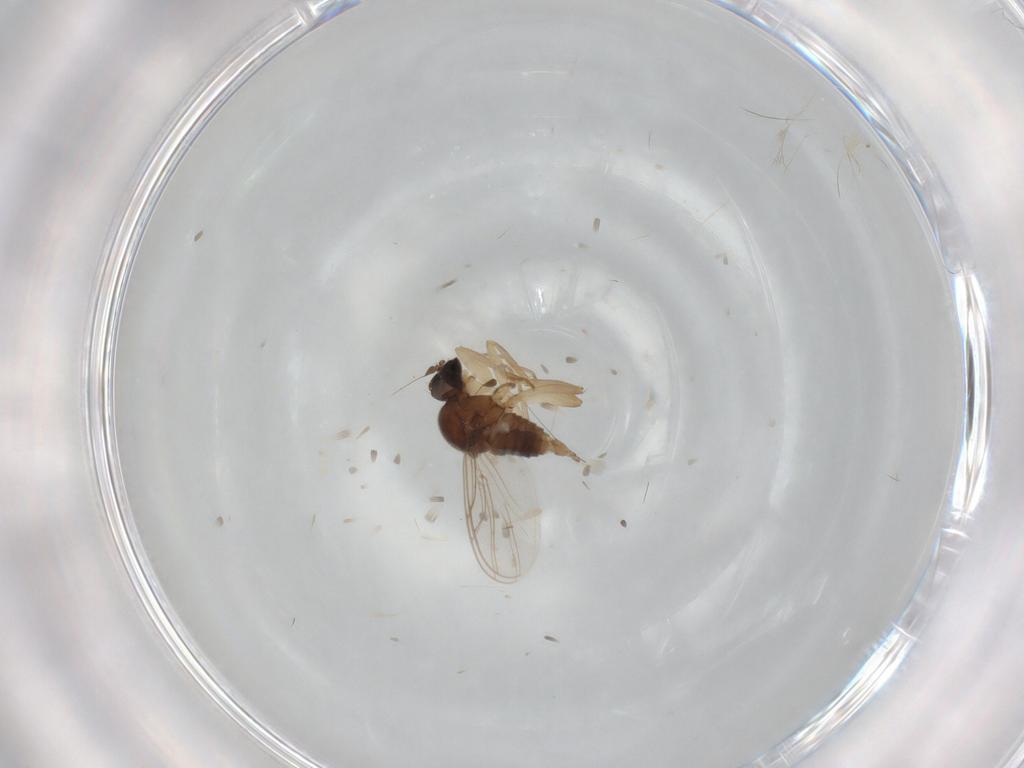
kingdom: Animalia
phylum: Arthropoda
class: Insecta
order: Diptera
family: Hybotidae
